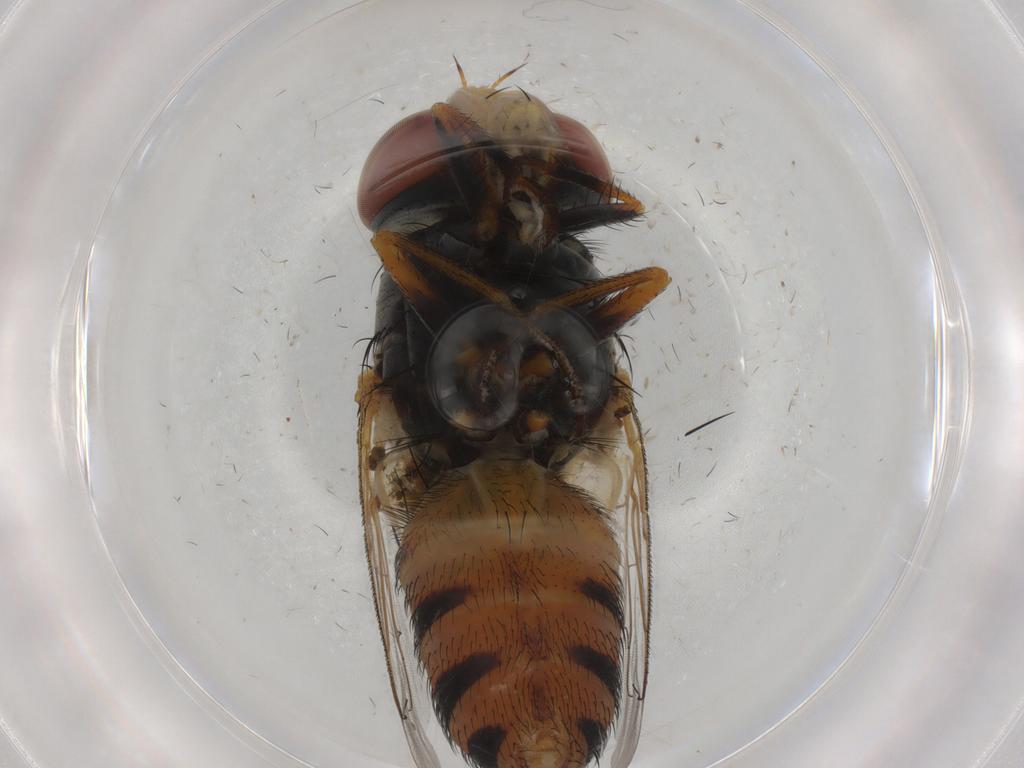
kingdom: Animalia
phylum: Arthropoda
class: Insecta
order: Diptera
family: Dolichopodidae
